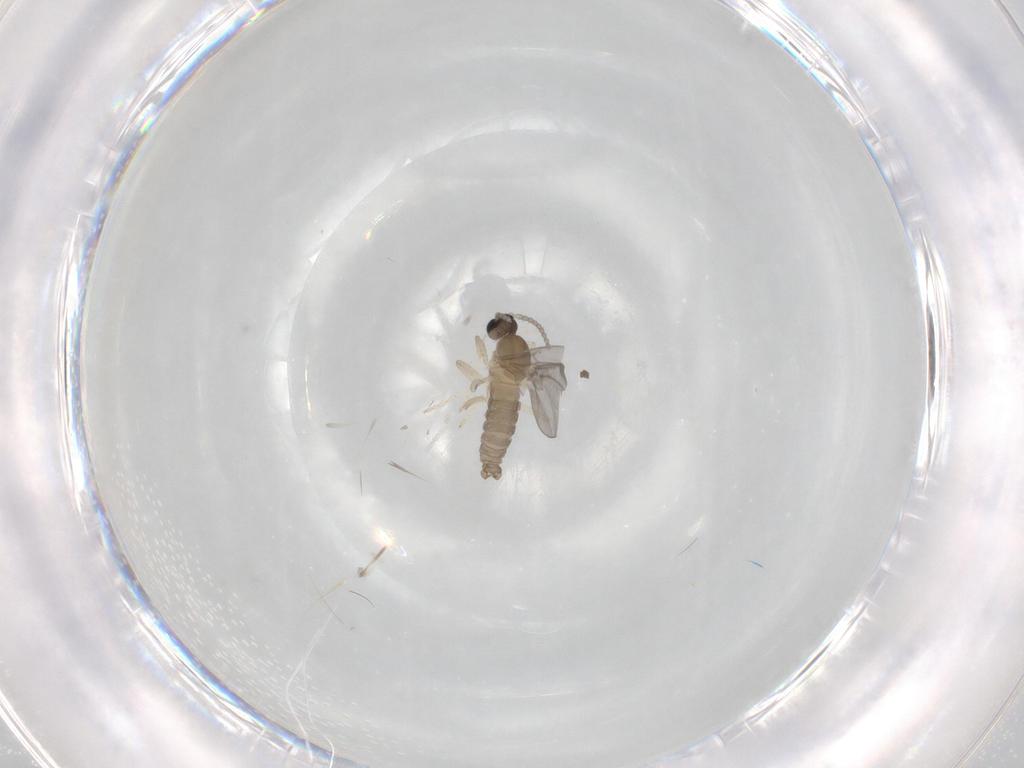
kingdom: Animalia
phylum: Arthropoda
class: Insecta
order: Diptera
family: Cecidomyiidae
